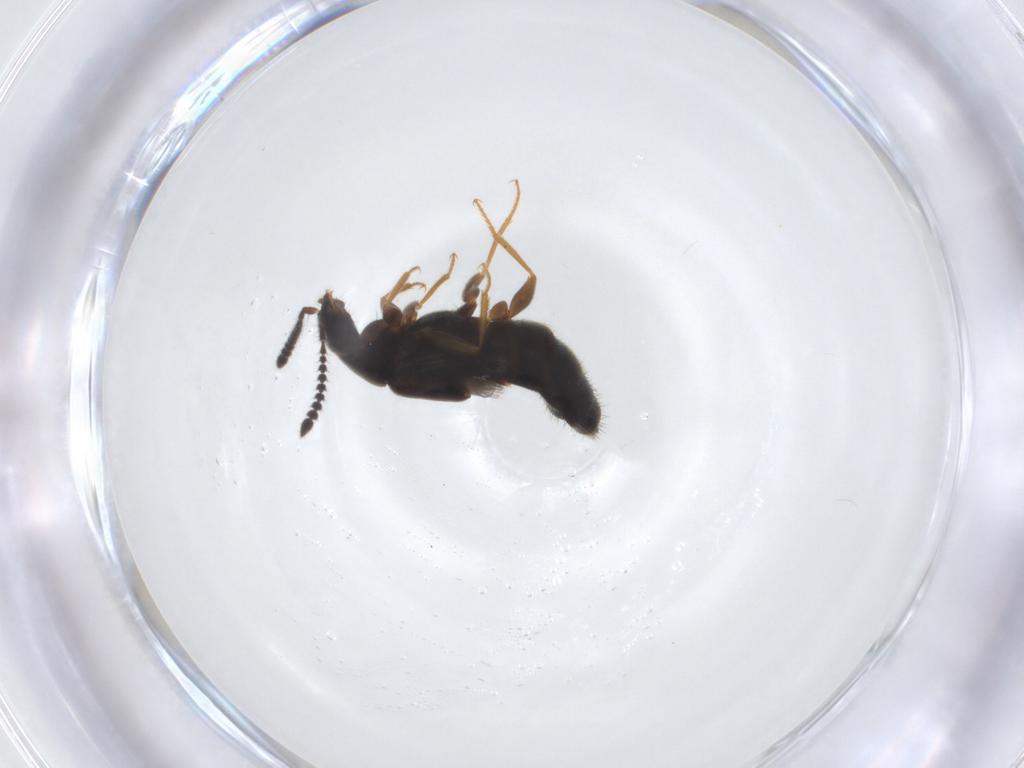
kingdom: Animalia
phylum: Arthropoda
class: Insecta
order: Coleoptera
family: Staphylinidae
